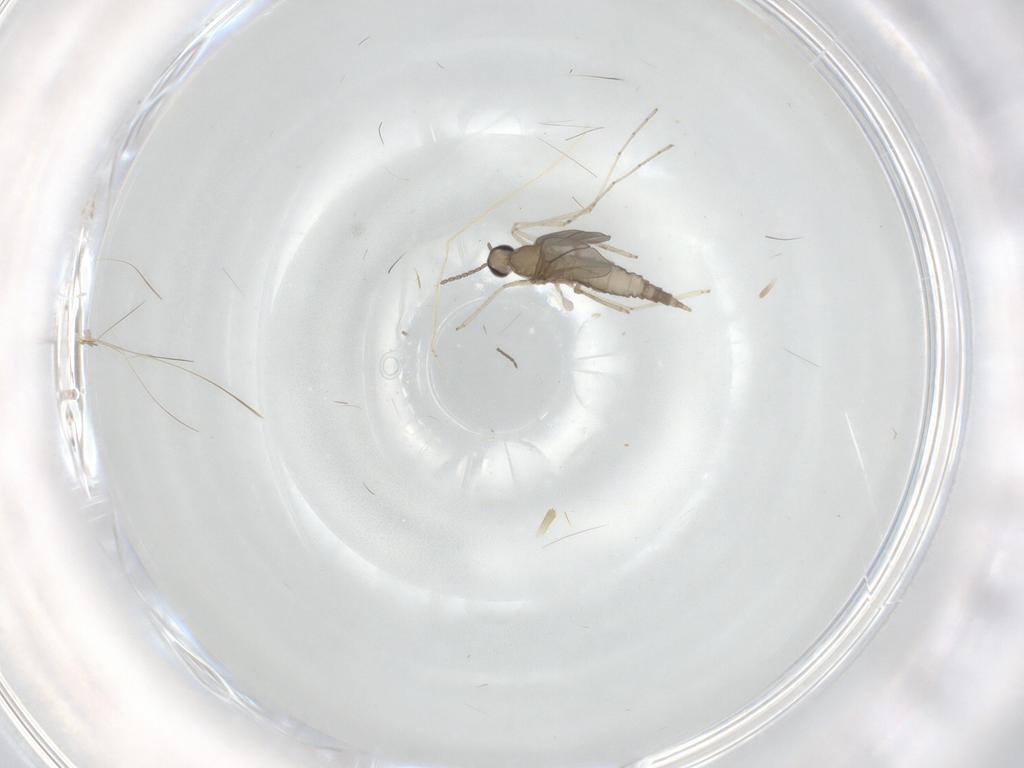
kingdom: Animalia
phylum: Arthropoda
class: Insecta
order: Diptera
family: Cecidomyiidae
